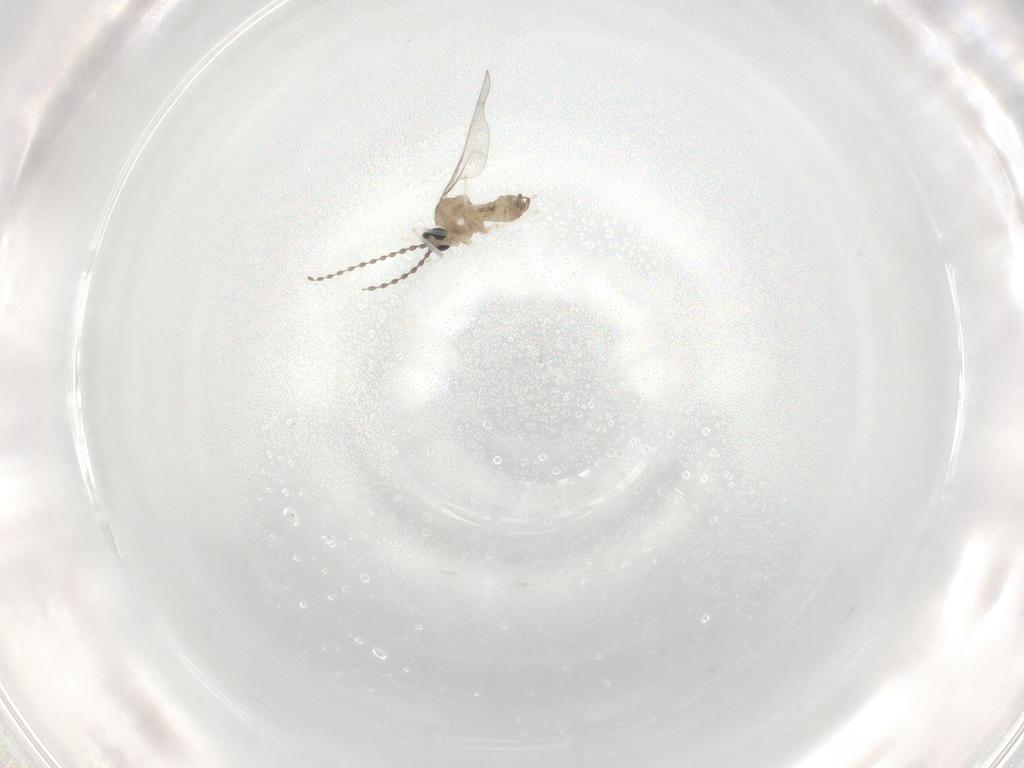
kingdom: Animalia
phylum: Arthropoda
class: Insecta
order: Diptera
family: Cecidomyiidae
